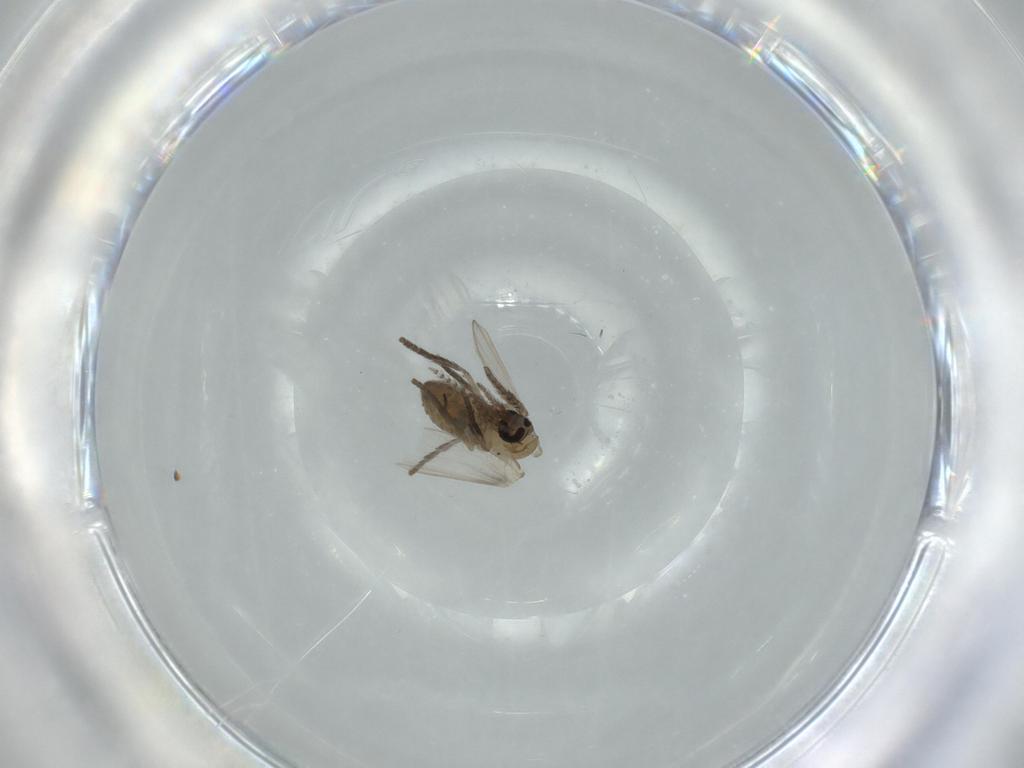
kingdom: Animalia
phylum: Arthropoda
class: Insecta
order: Diptera
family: Psychodidae
